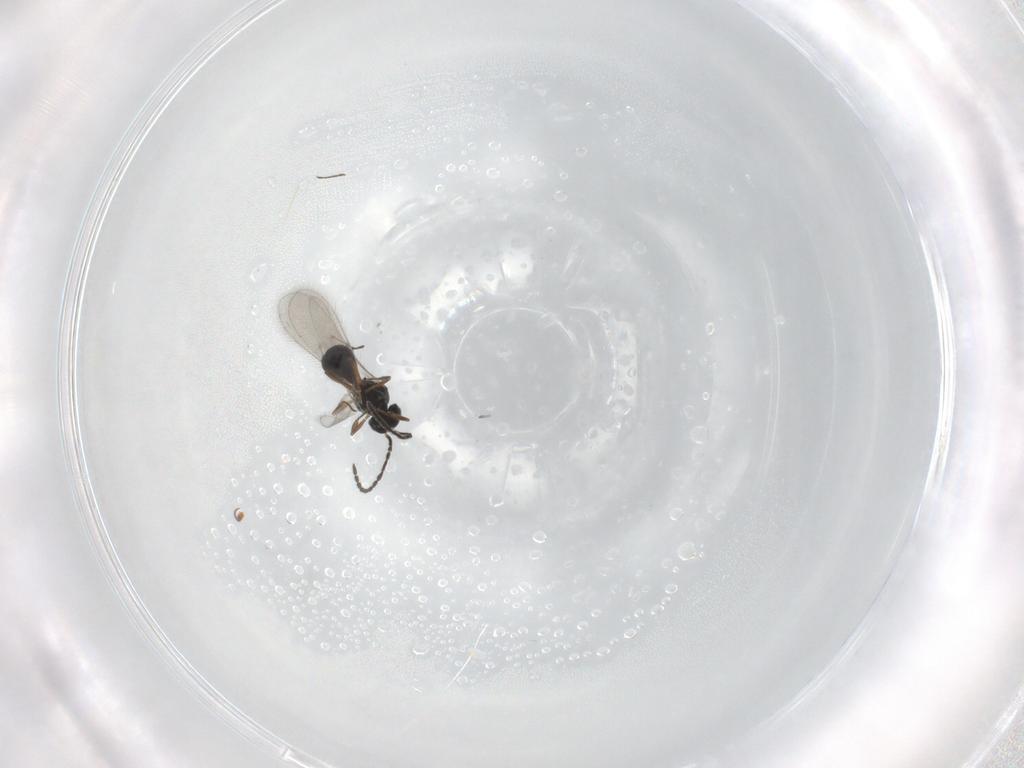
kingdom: Animalia
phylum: Arthropoda
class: Insecta
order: Hymenoptera
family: Scelionidae
